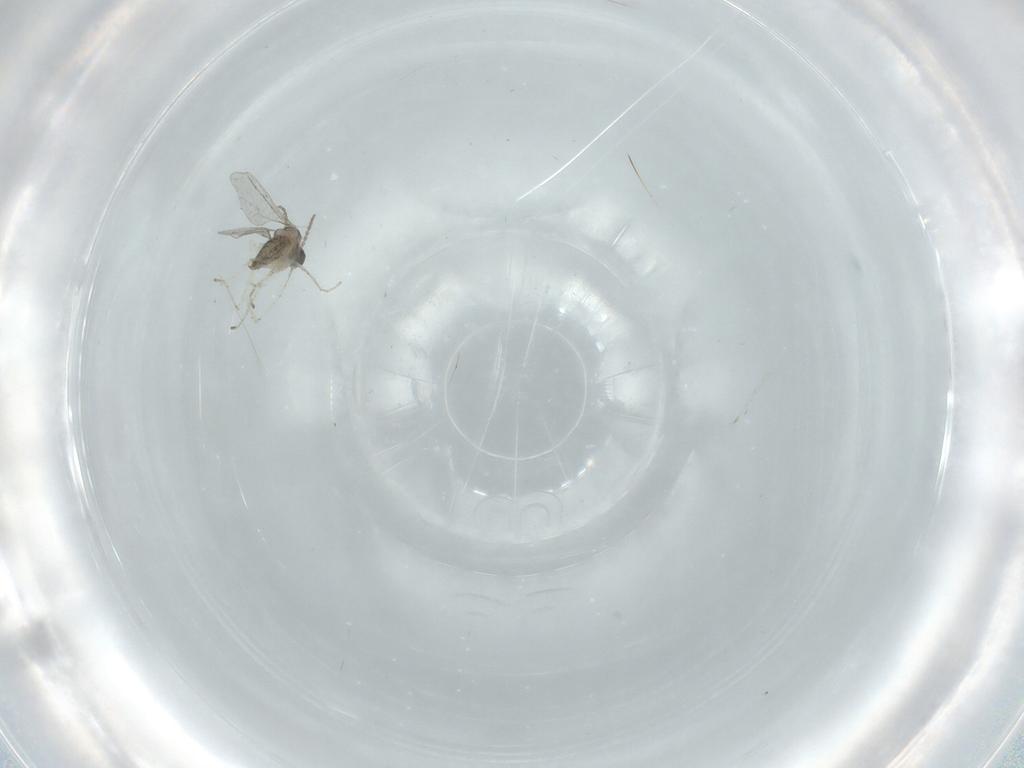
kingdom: Animalia
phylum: Arthropoda
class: Insecta
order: Diptera
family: Cecidomyiidae
